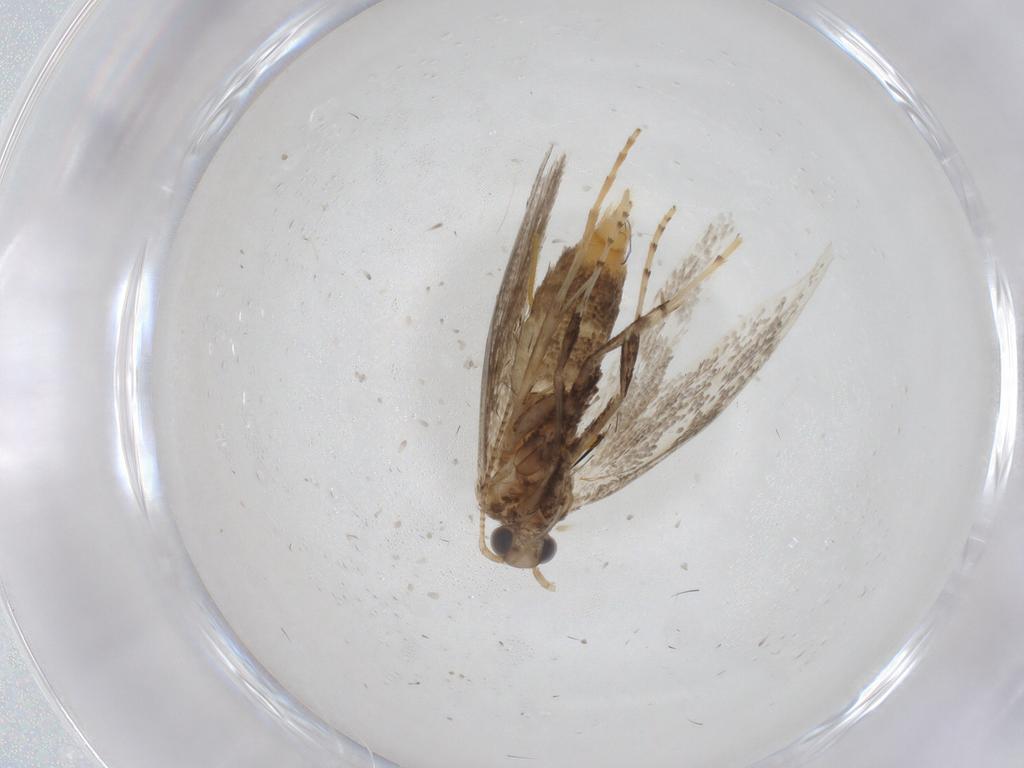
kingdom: Animalia
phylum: Arthropoda
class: Insecta
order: Lepidoptera
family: Gracillariidae
